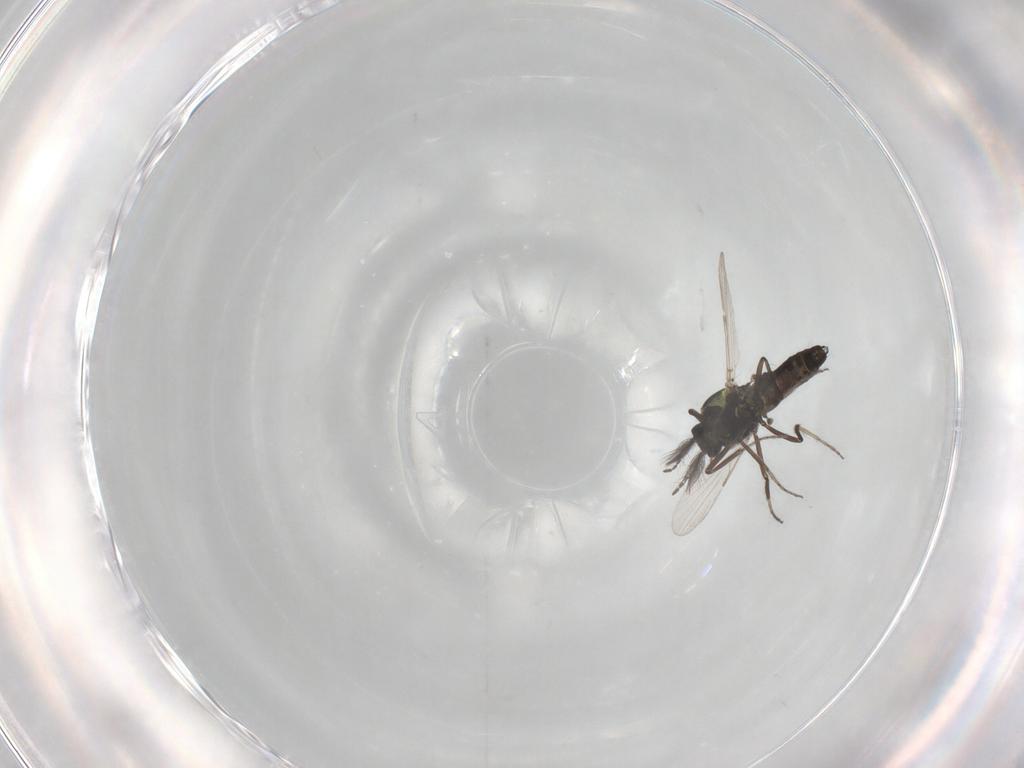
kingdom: Animalia
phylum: Arthropoda
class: Insecta
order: Diptera
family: Ceratopogonidae
